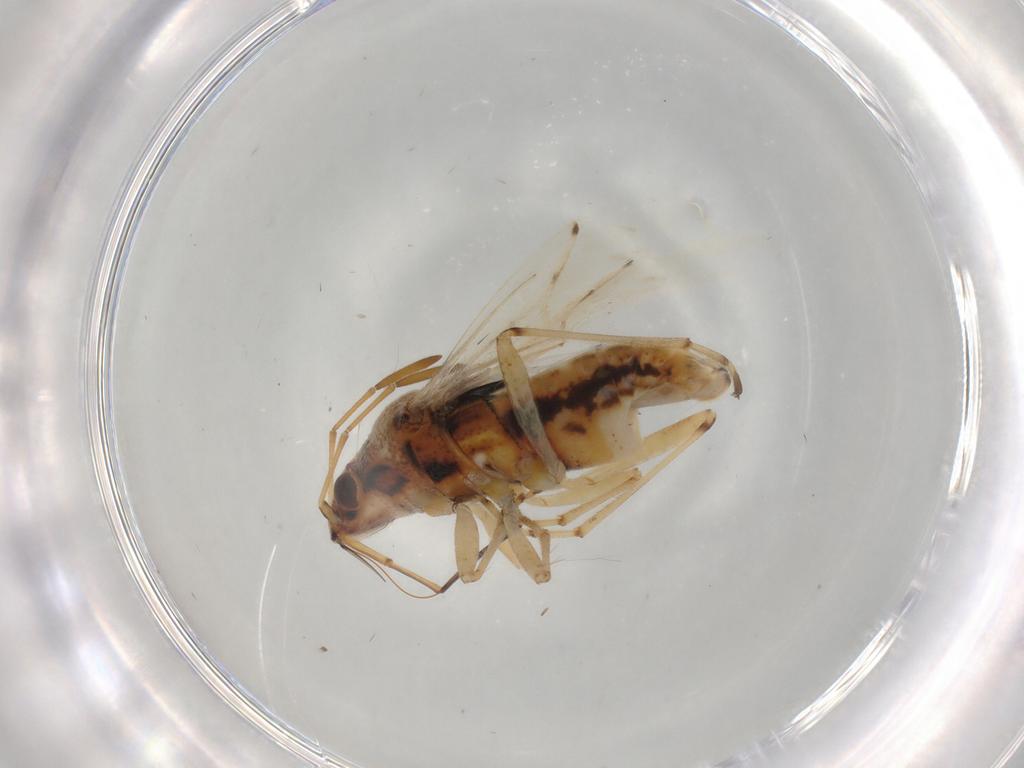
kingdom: Animalia
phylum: Arthropoda
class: Insecta
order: Hemiptera
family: Lygaeidae
